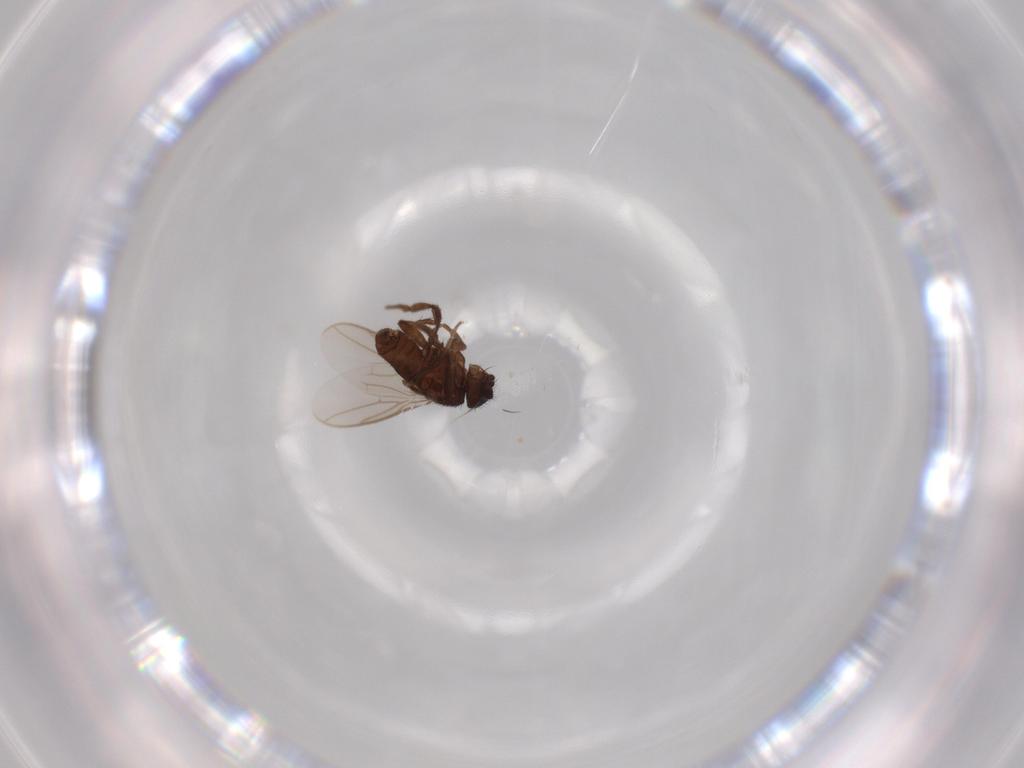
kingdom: Animalia
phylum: Arthropoda
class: Insecta
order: Diptera
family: Sphaeroceridae
